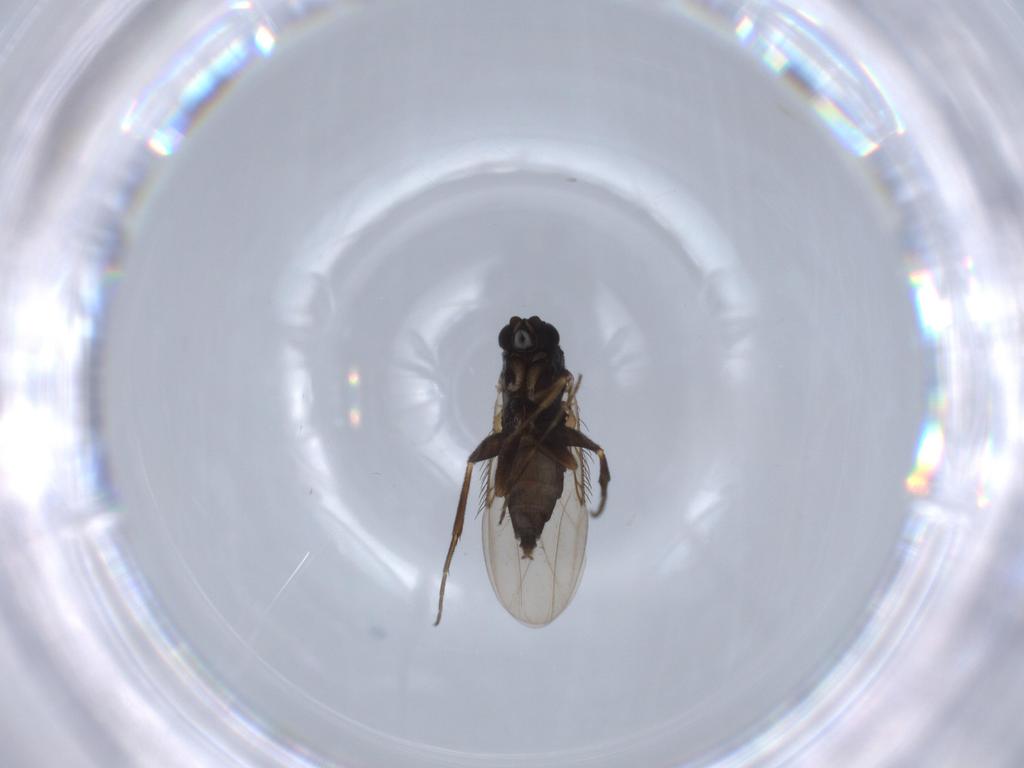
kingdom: Animalia
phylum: Arthropoda
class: Insecta
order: Diptera
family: Phoridae
